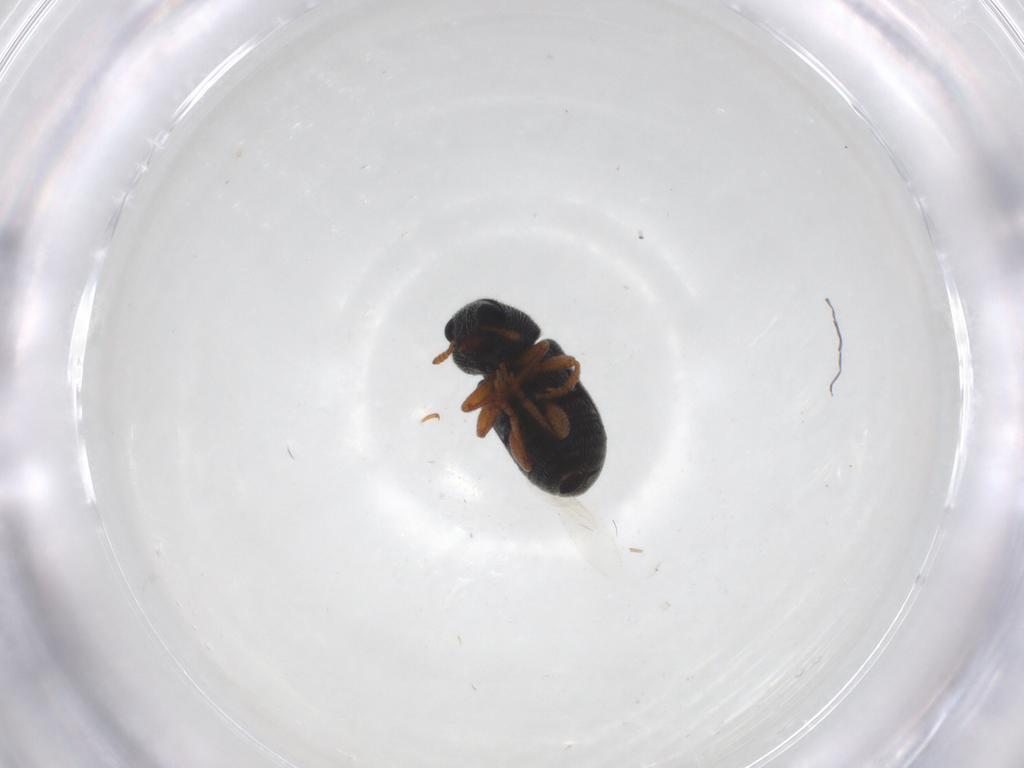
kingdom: Animalia
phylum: Arthropoda
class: Insecta
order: Coleoptera
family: Anthribidae
